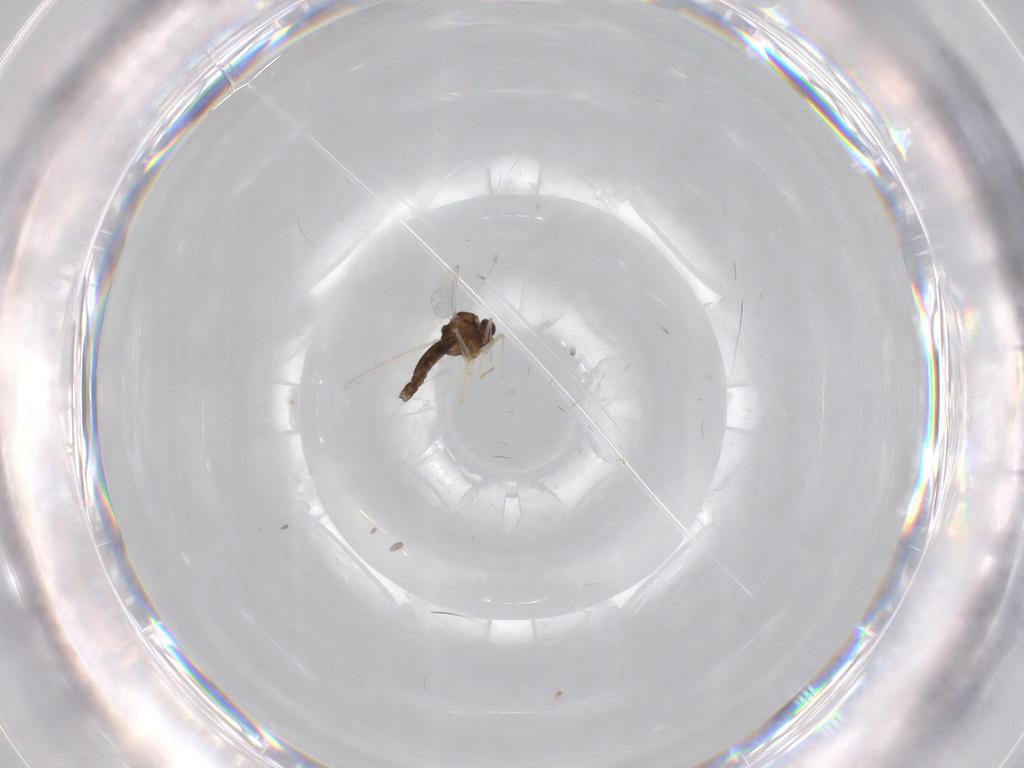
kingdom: Animalia
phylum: Arthropoda
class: Insecta
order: Diptera
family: Chironomidae
